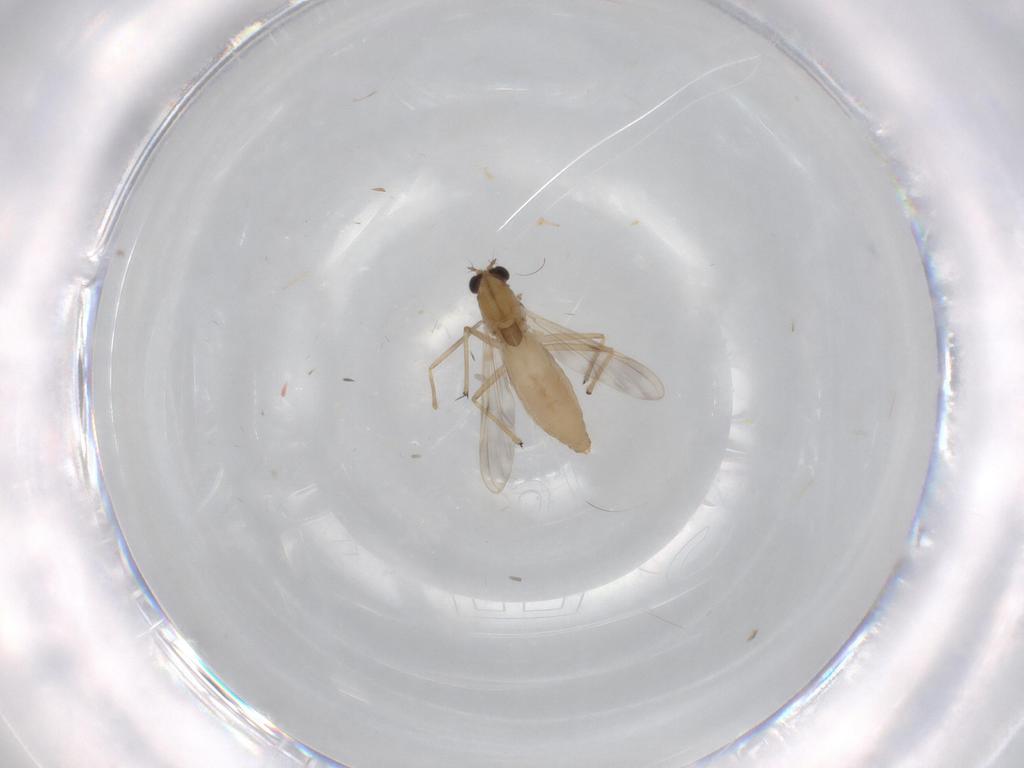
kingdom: Animalia
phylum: Arthropoda
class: Insecta
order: Diptera
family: Chironomidae
